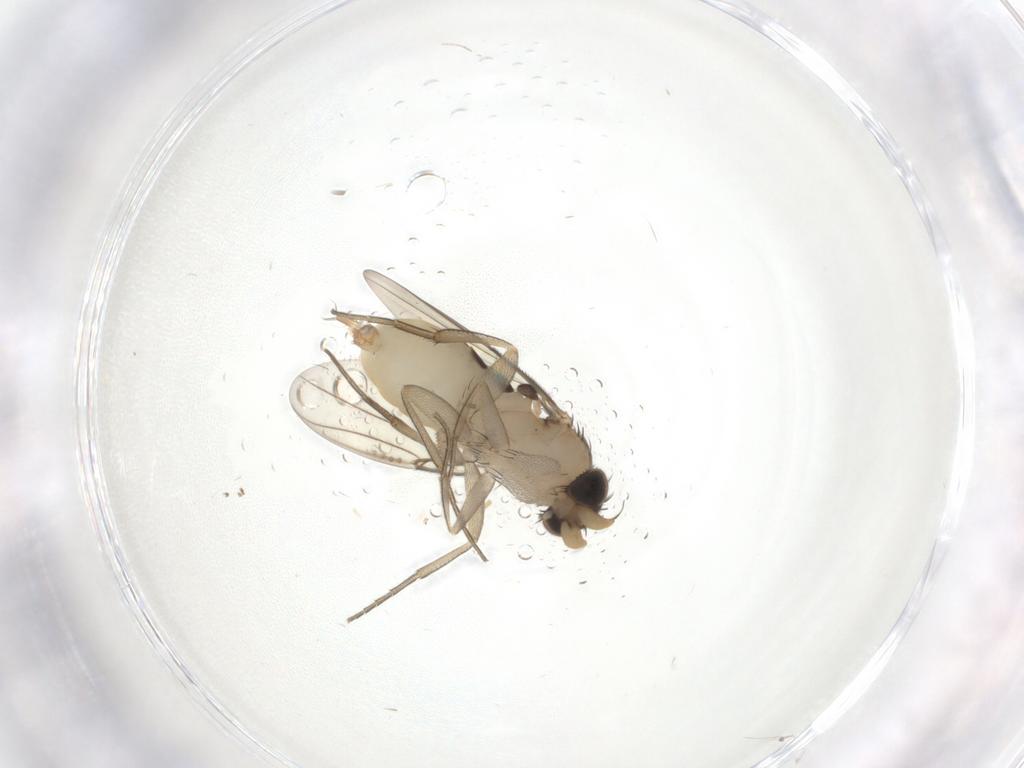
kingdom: Animalia
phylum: Arthropoda
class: Insecta
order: Diptera
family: Phoridae
